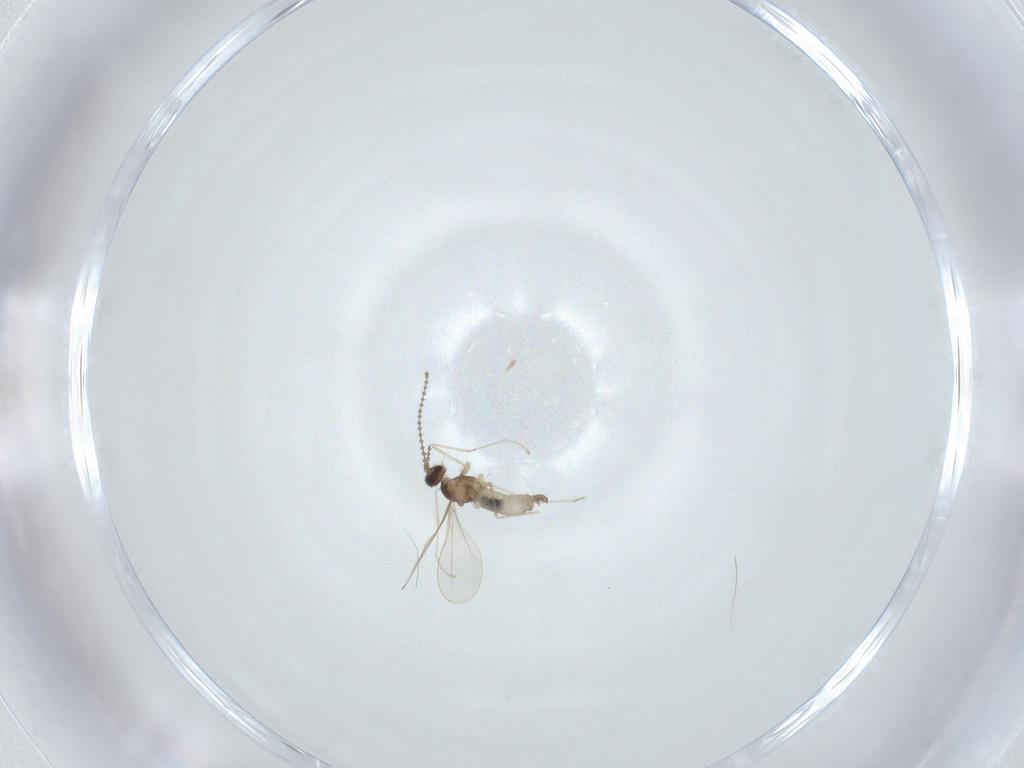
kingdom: Animalia
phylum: Arthropoda
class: Insecta
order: Diptera
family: Cecidomyiidae
